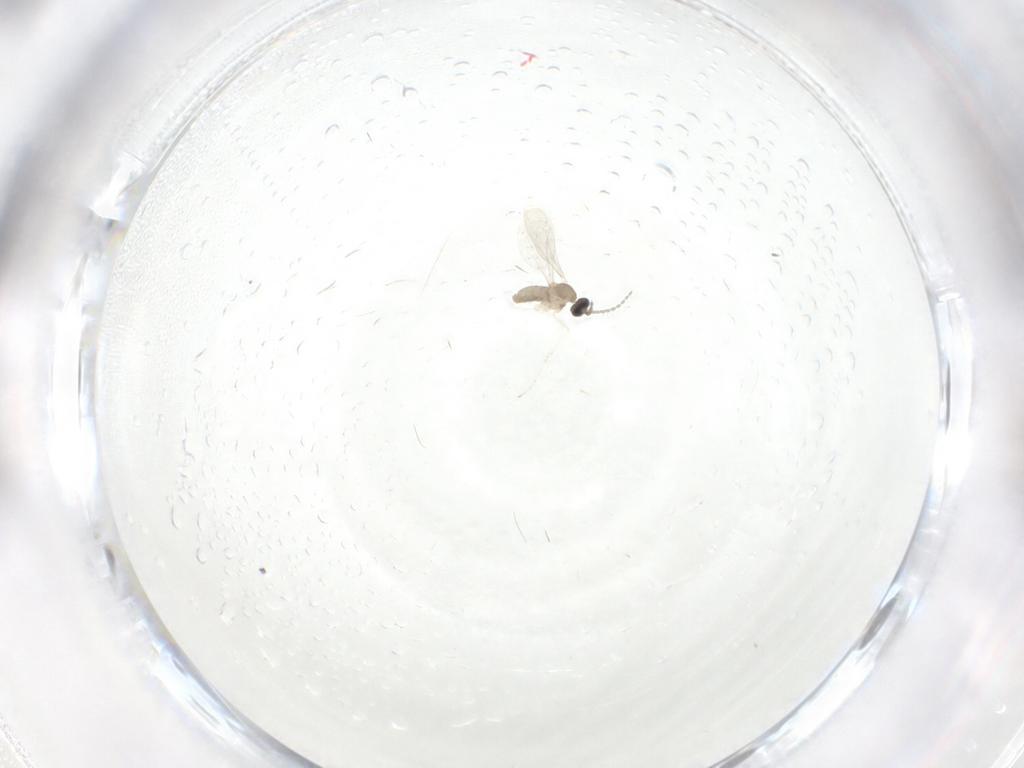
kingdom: Animalia
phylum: Arthropoda
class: Insecta
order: Diptera
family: Cecidomyiidae
